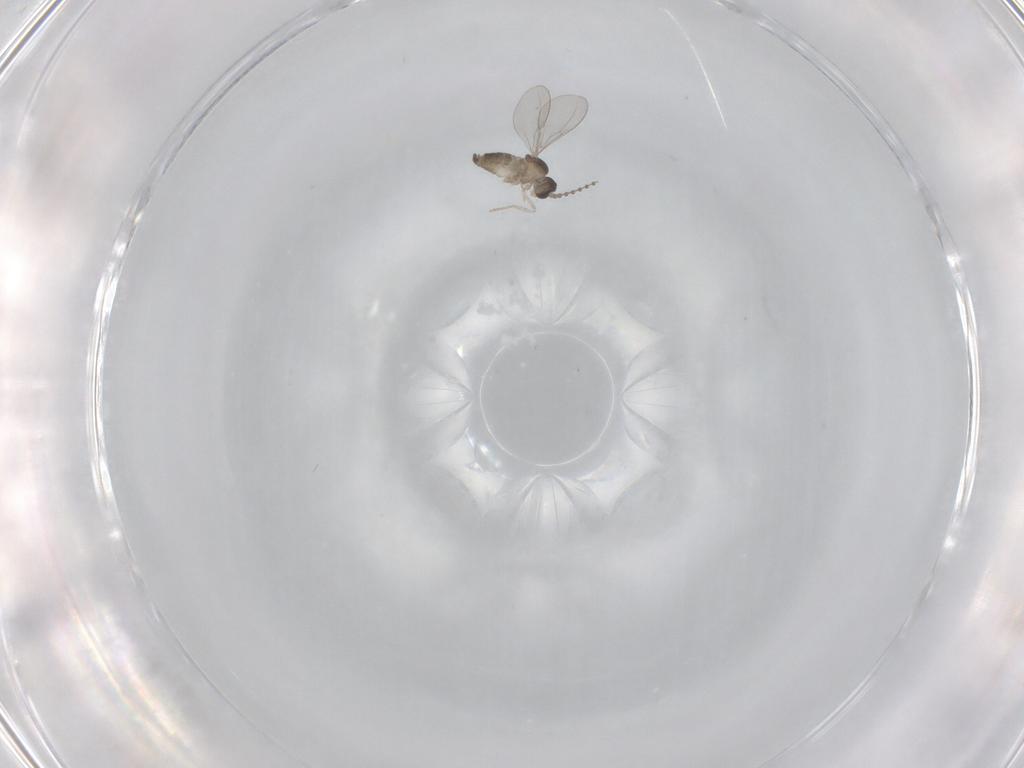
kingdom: Animalia
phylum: Arthropoda
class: Insecta
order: Diptera
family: Cecidomyiidae
